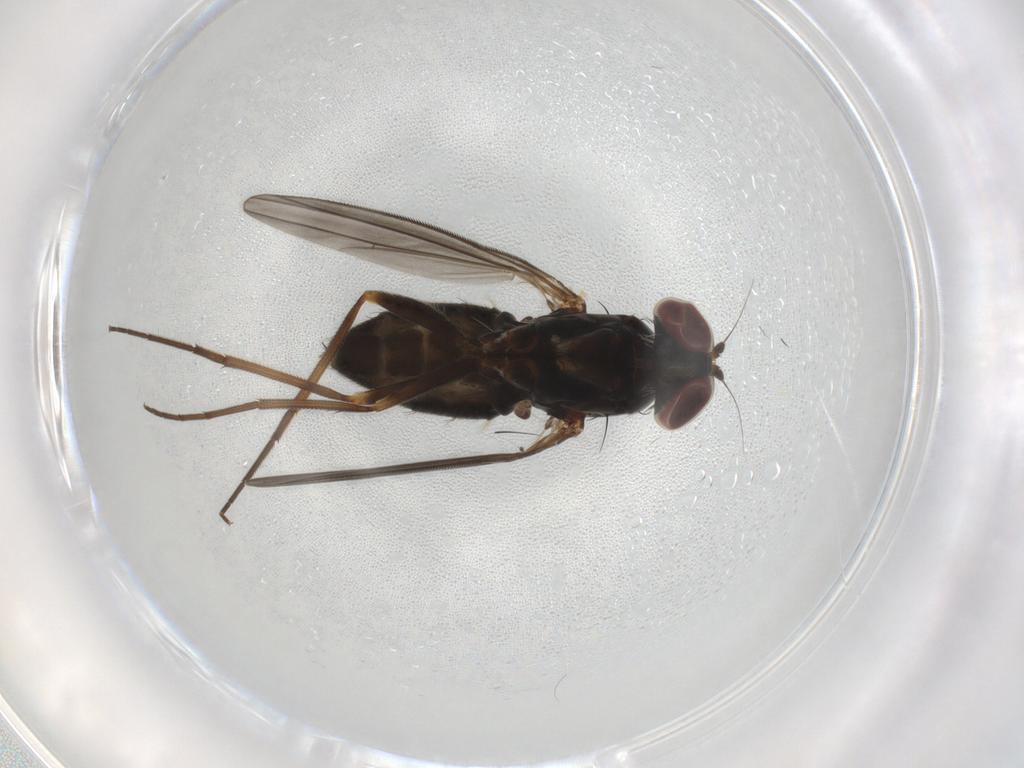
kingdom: Animalia
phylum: Arthropoda
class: Insecta
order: Diptera
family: Dolichopodidae
